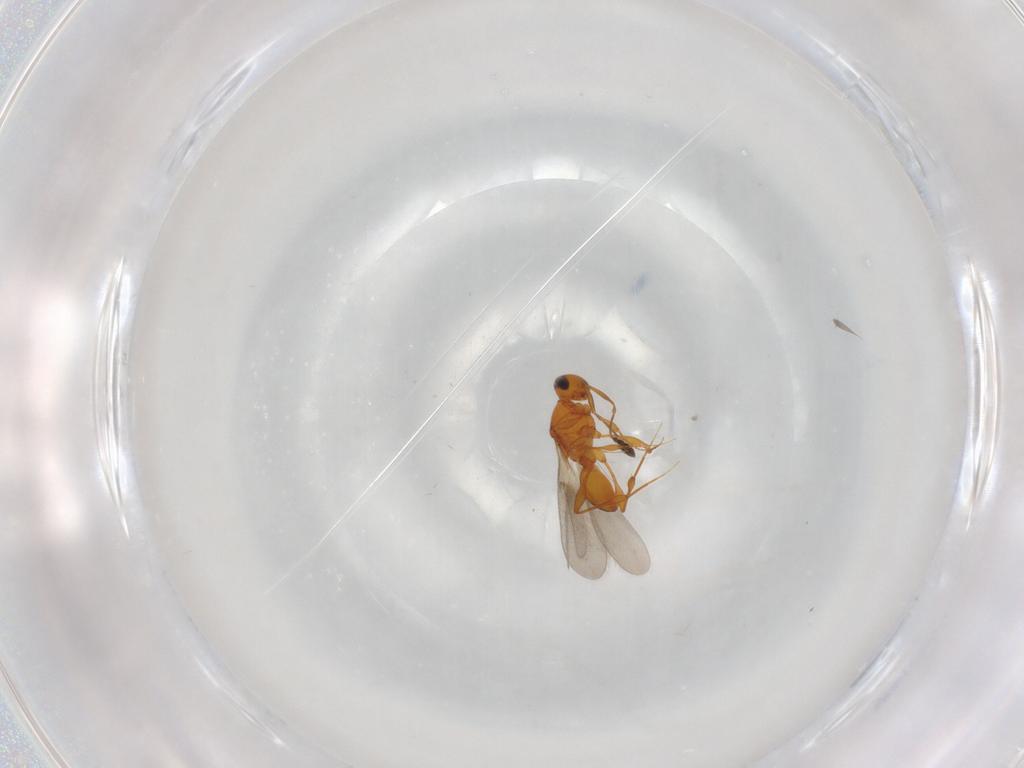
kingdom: Animalia
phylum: Arthropoda
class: Insecta
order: Hymenoptera
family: Platygastridae
